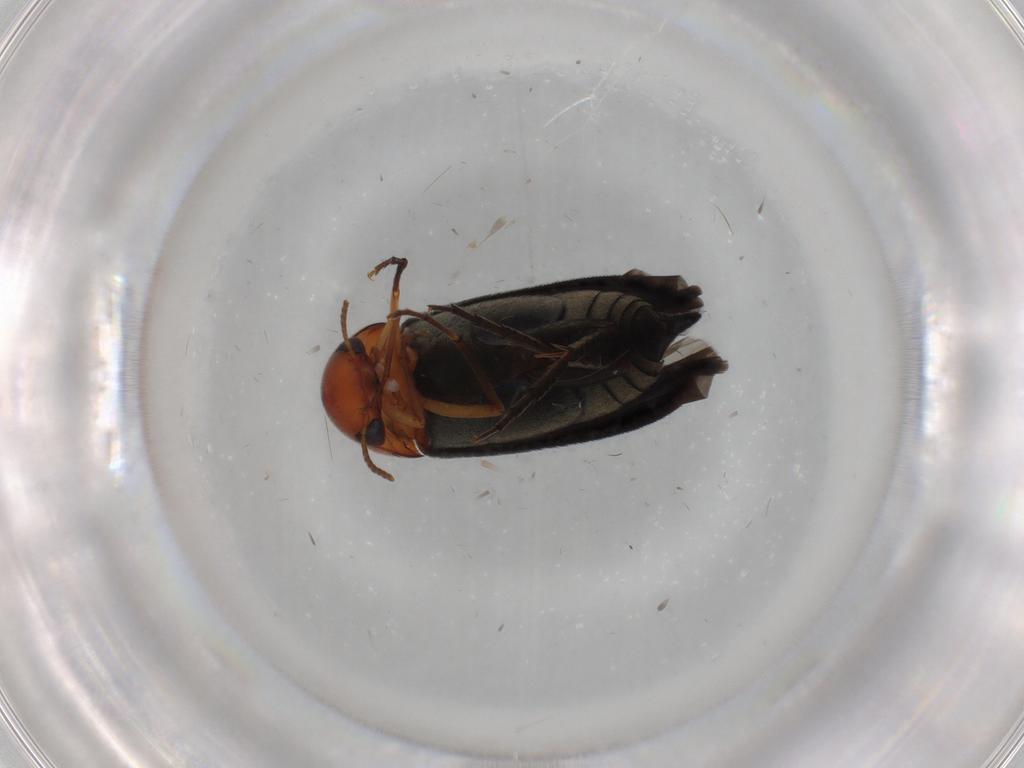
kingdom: Animalia
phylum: Arthropoda
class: Insecta
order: Coleoptera
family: Mordellidae
